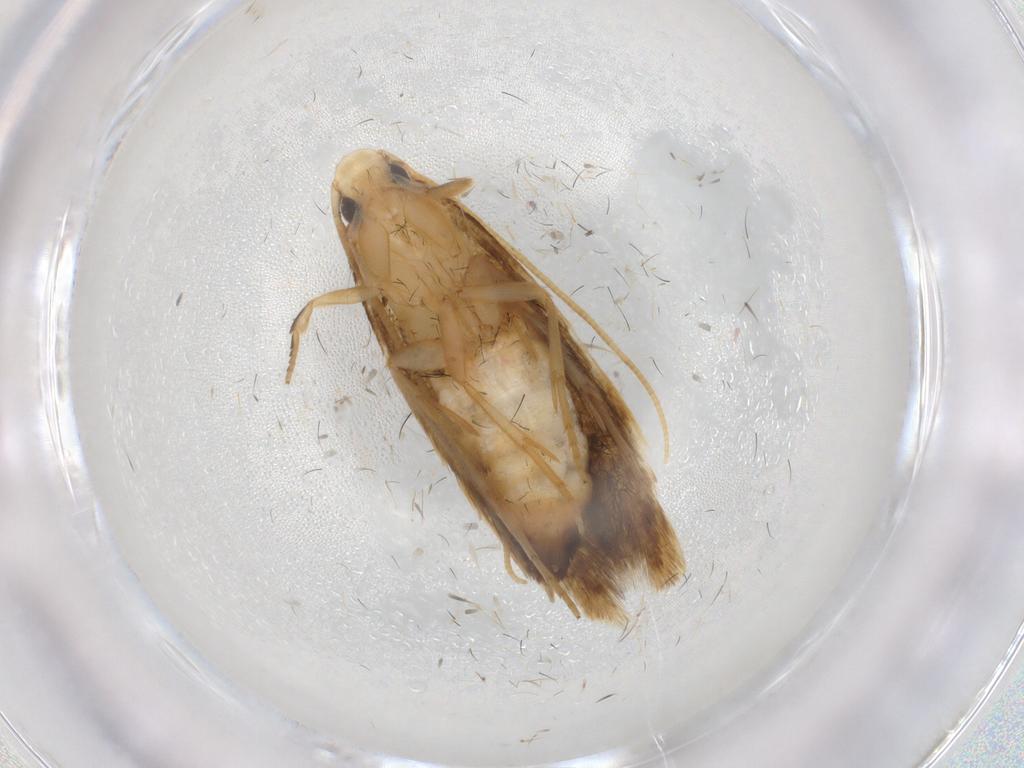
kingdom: Animalia
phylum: Arthropoda
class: Insecta
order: Lepidoptera
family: Tineidae
